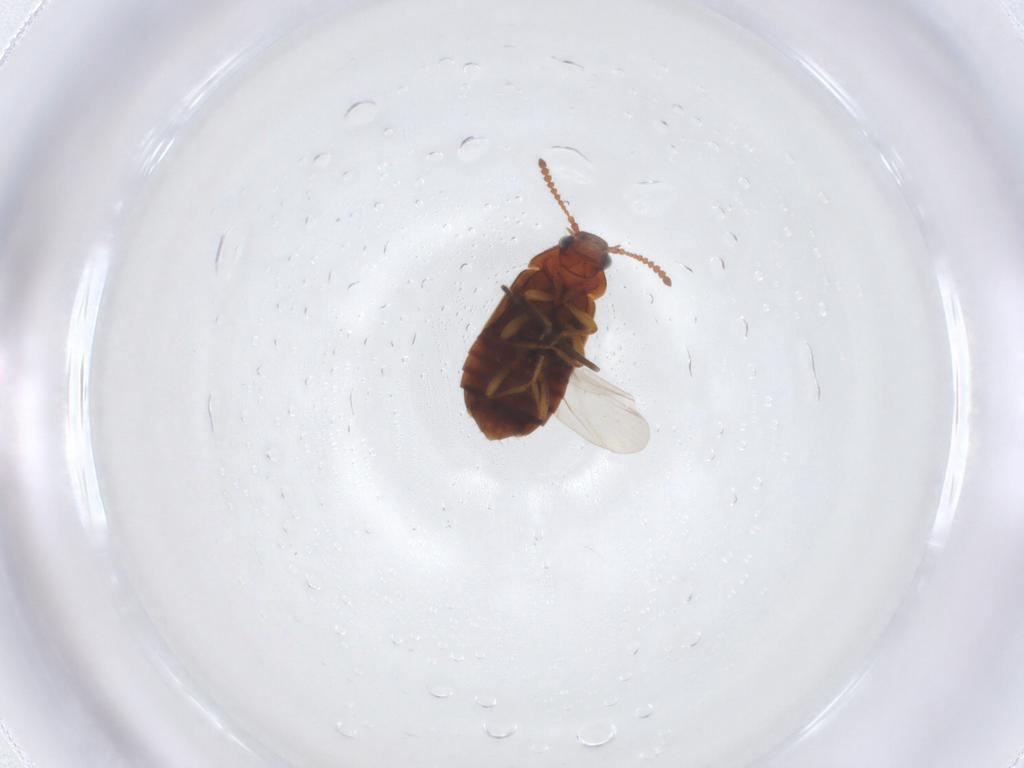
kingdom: Animalia
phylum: Arthropoda
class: Insecta
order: Coleoptera
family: Staphylinidae
